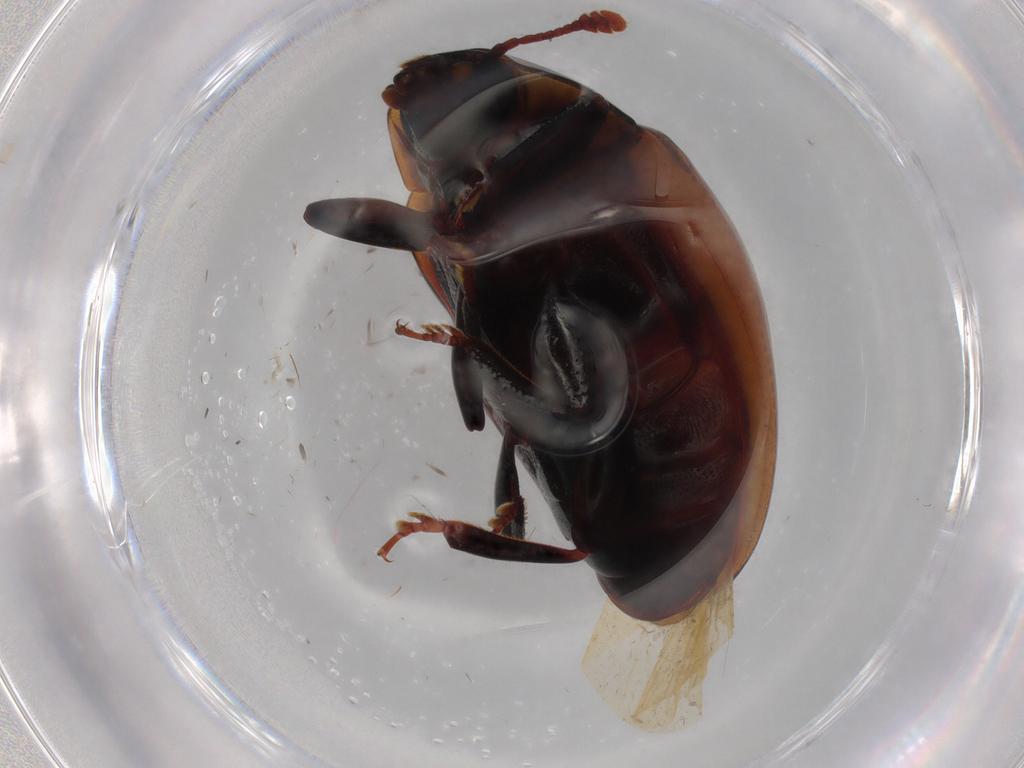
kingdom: Animalia
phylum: Arthropoda
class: Insecta
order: Coleoptera
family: Zopheridae
